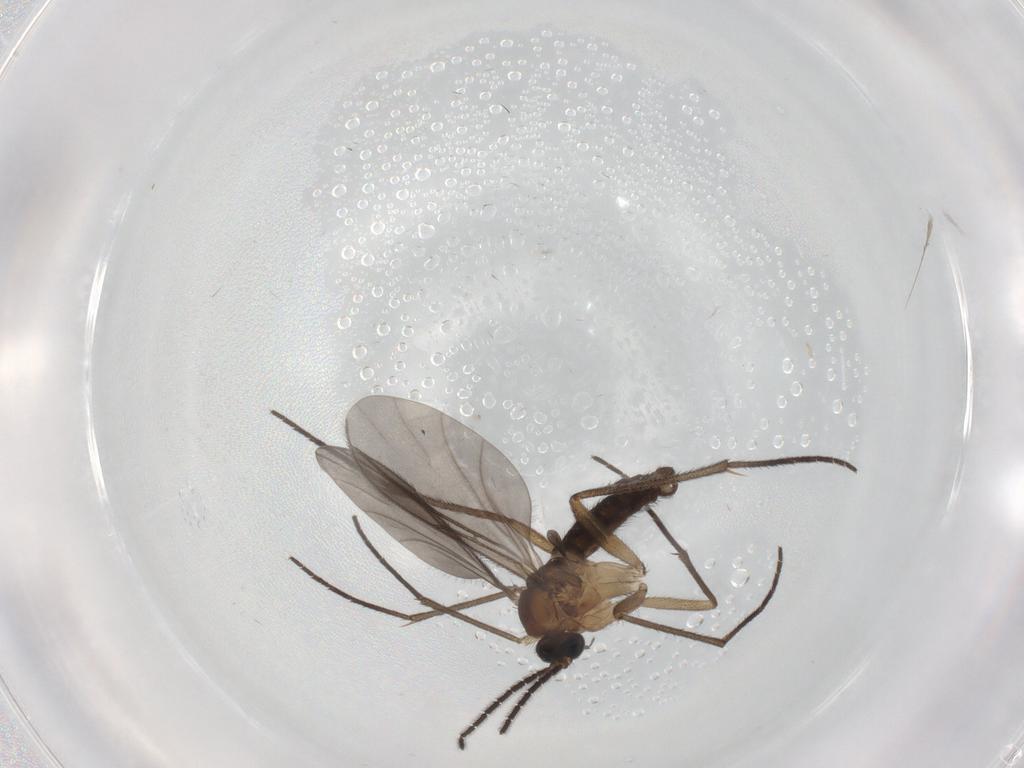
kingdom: Animalia
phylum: Arthropoda
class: Insecta
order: Diptera
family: Sciaridae
